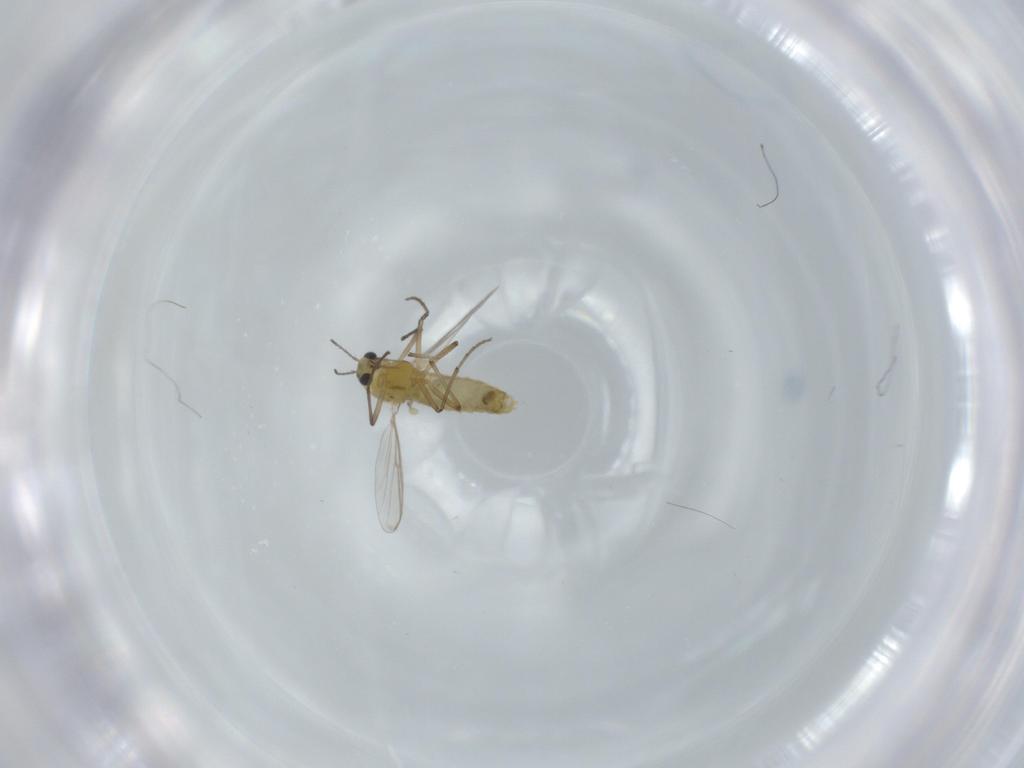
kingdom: Animalia
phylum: Arthropoda
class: Insecta
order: Diptera
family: Chironomidae
